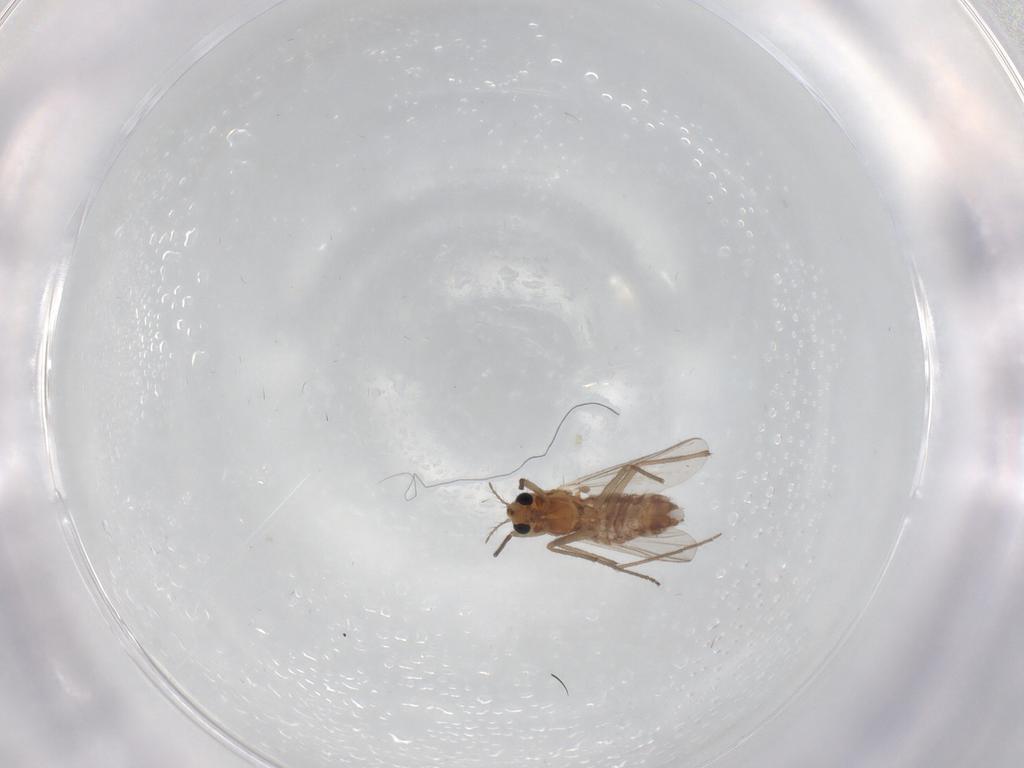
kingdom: Animalia
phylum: Arthropoda
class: Insecta
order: Diptera
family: Chironomidae
